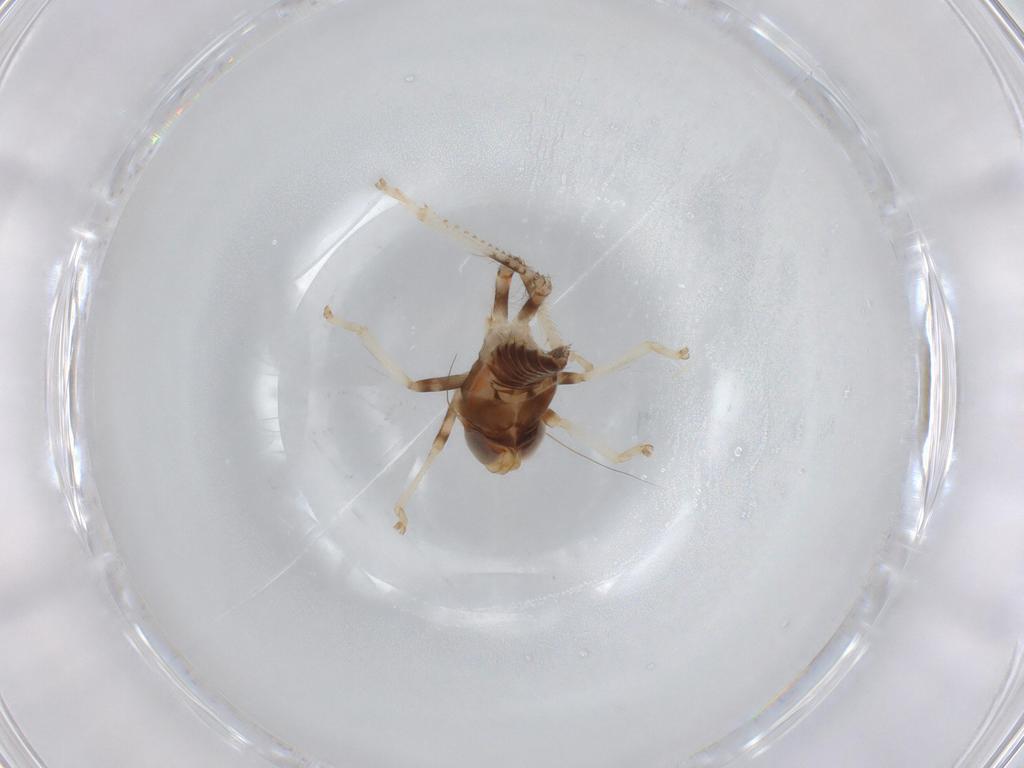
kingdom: Animalia
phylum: Arthropoda
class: Insecta
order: Hemiptera
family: Cicadellidae
